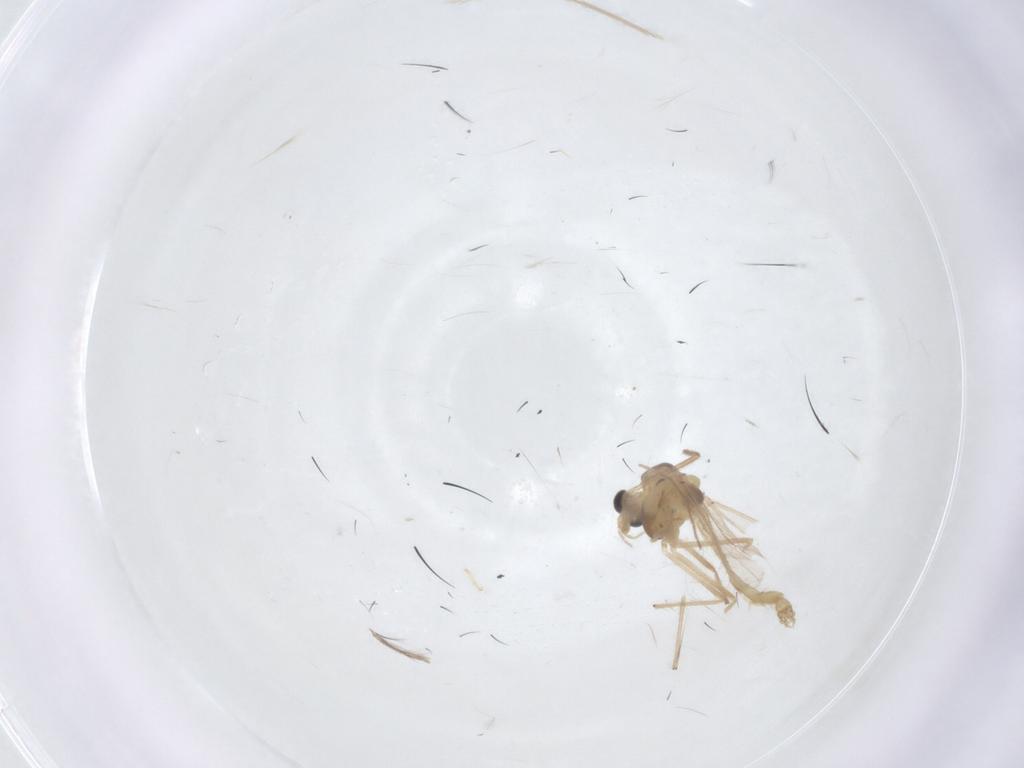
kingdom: Animalia
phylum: Arthropoda
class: Insecta
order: Diptera
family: Chironomidae
